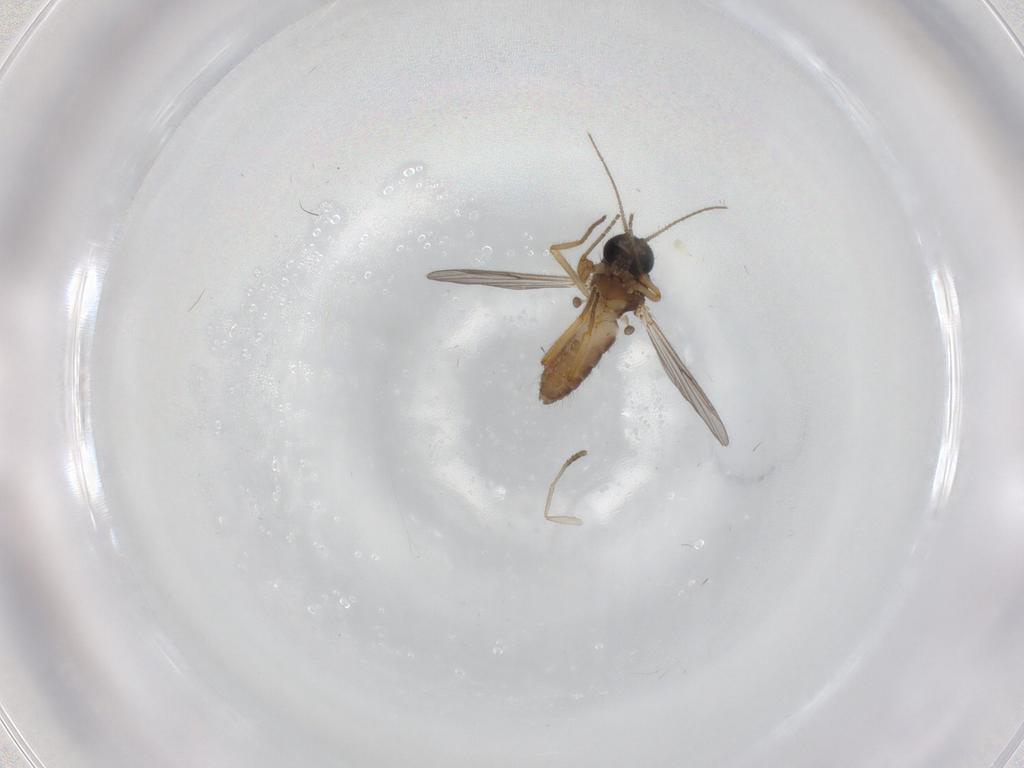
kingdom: Animalia
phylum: Arthropoda
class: Insecta
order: Diptera
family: Ceratopogonidae
